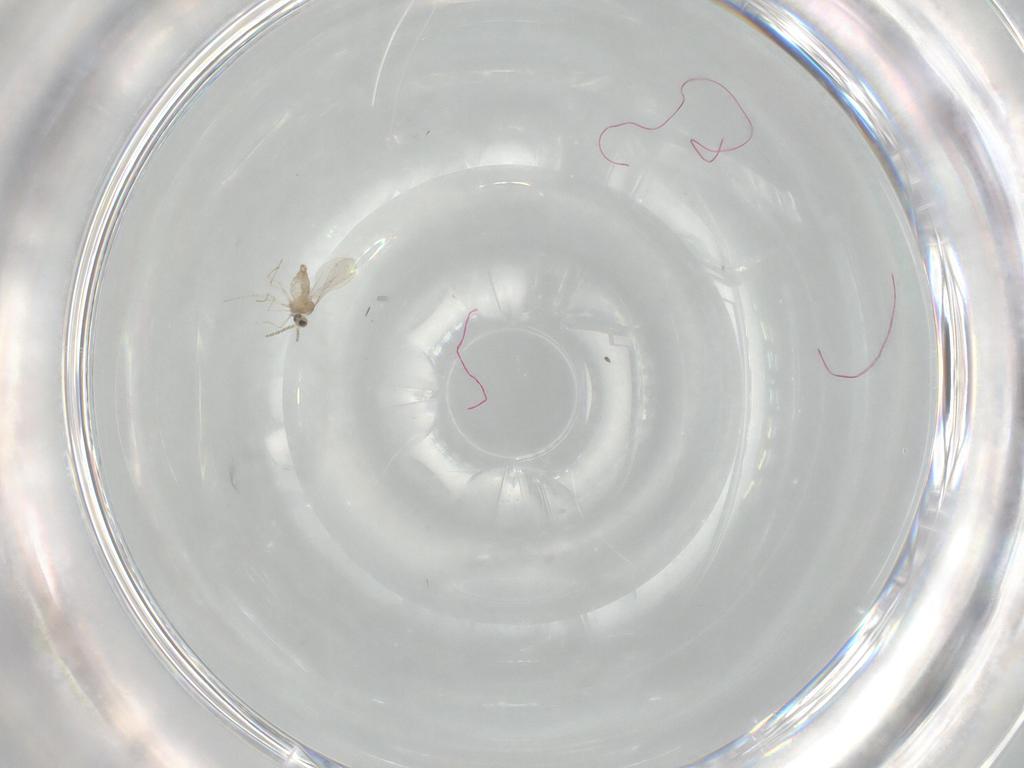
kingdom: Animalia
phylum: Arthropoda
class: Insecta
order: Diptera
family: Cecidomyiidae
